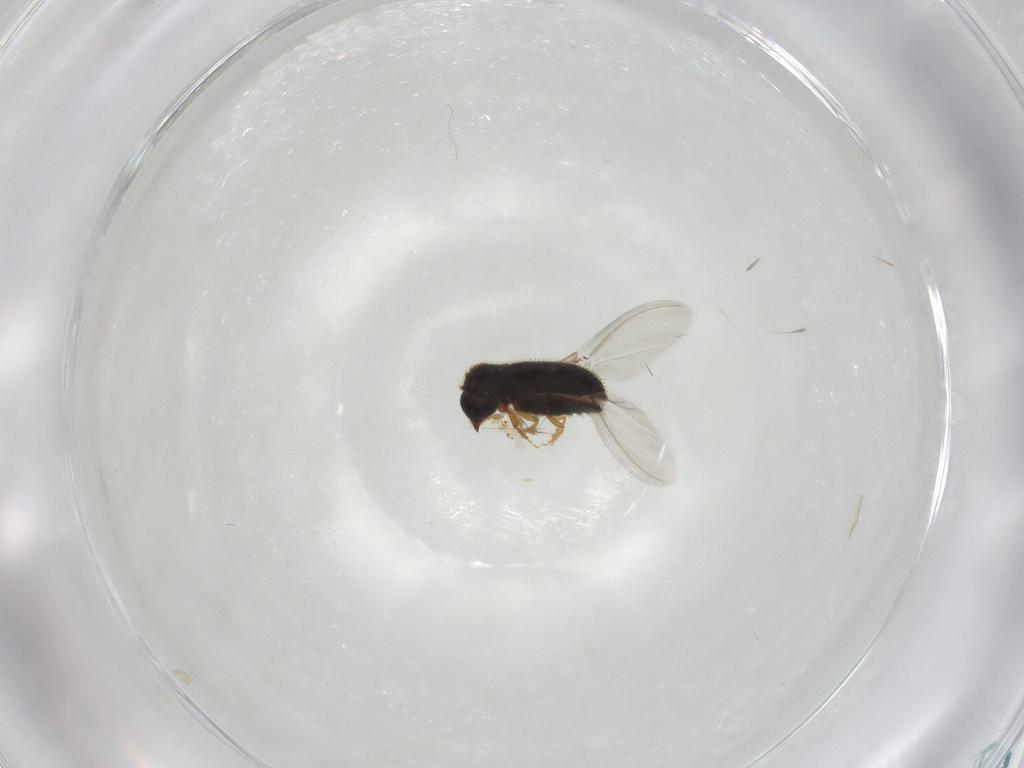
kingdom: Animalia
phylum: Arthropoda
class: Insecta
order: Coleoptera
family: Curculionidae
